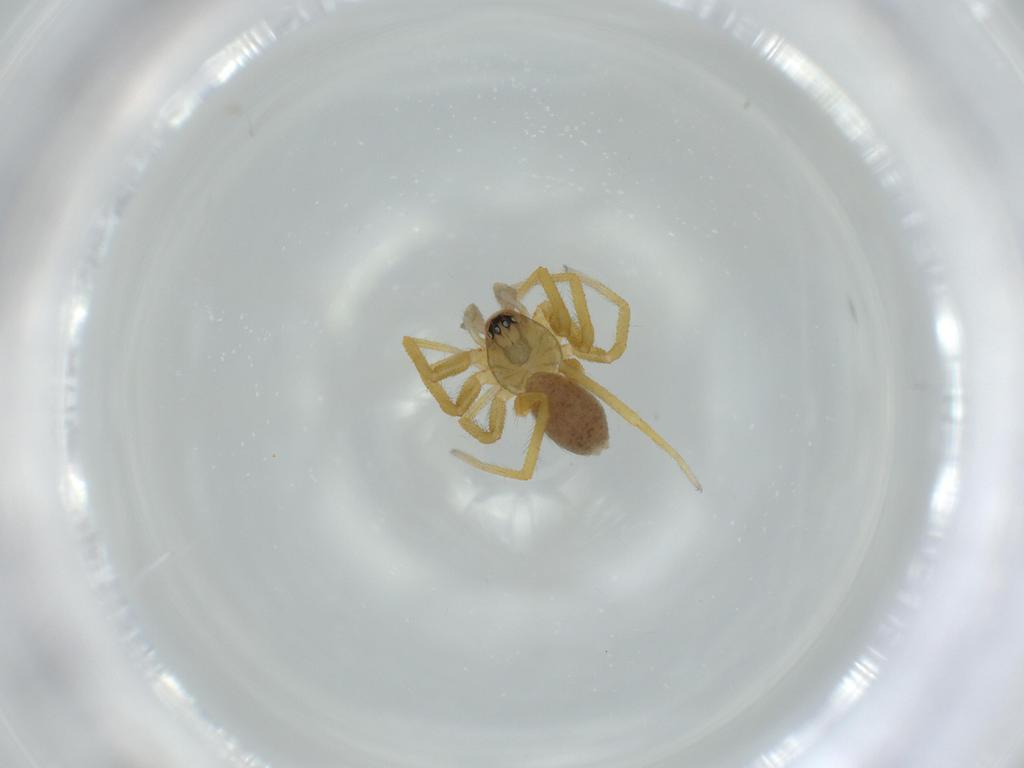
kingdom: Animalia
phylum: Arthropoda
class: Arachnida
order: Araneae
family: Linyphiidae
